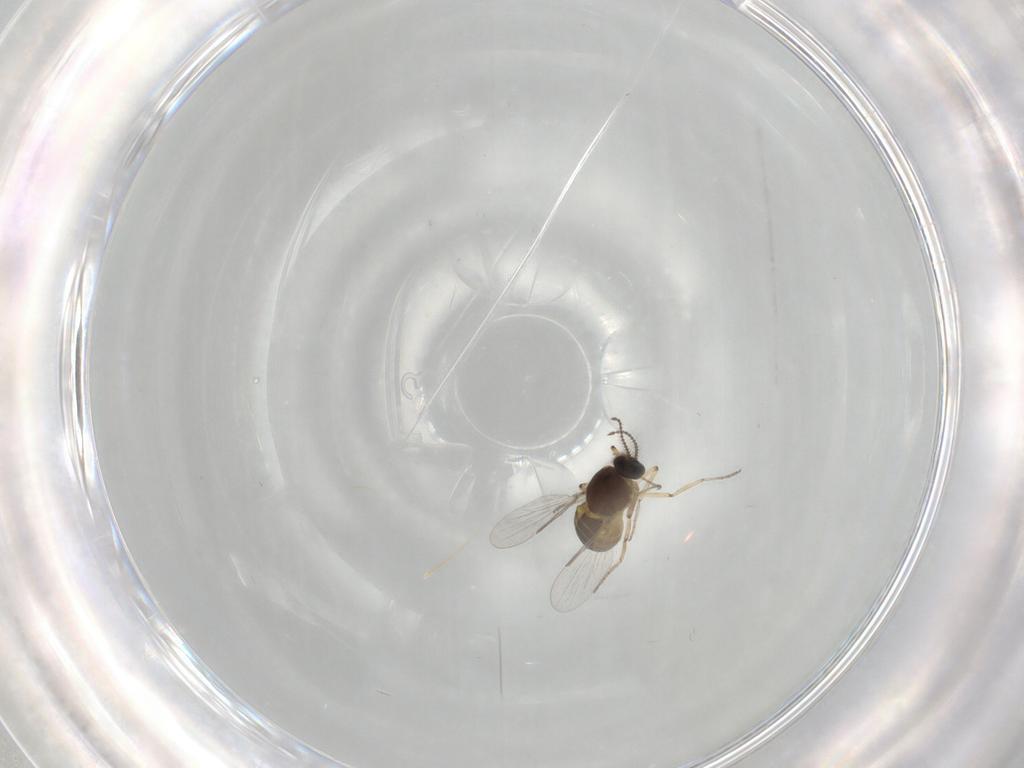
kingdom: Animalia
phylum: Arthropoda
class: Insecta
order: Diptera
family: Ceratopogonidae
